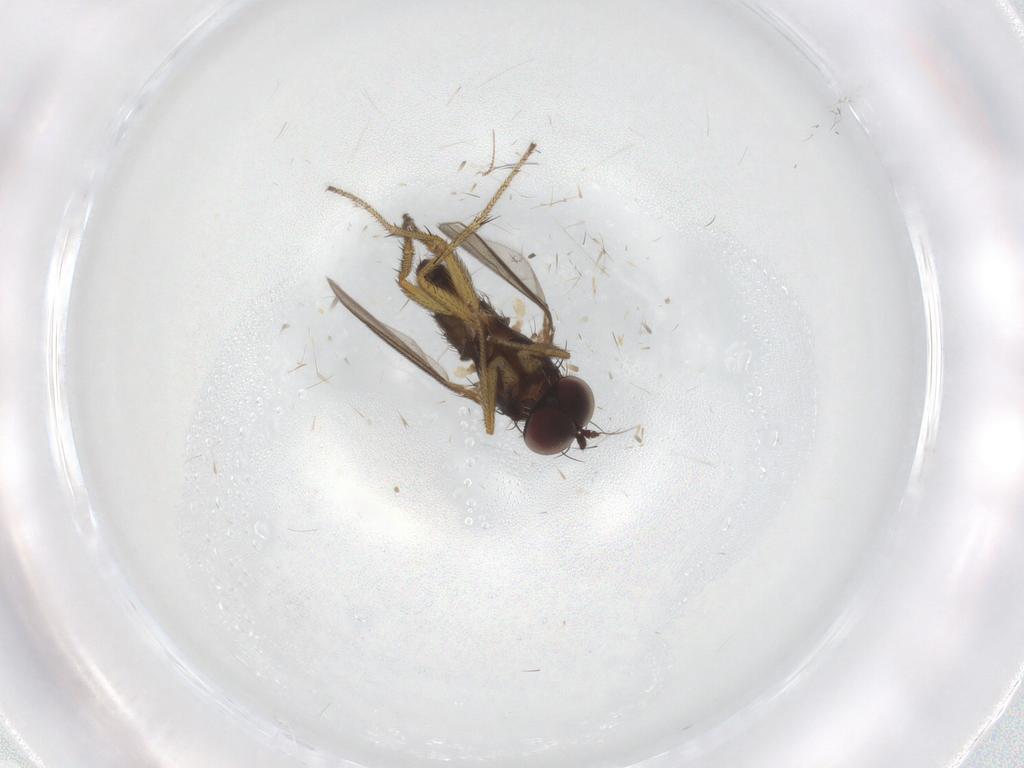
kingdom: Animalia
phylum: Arthropoda
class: Insecta
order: Diptera
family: Dolichopodidae
